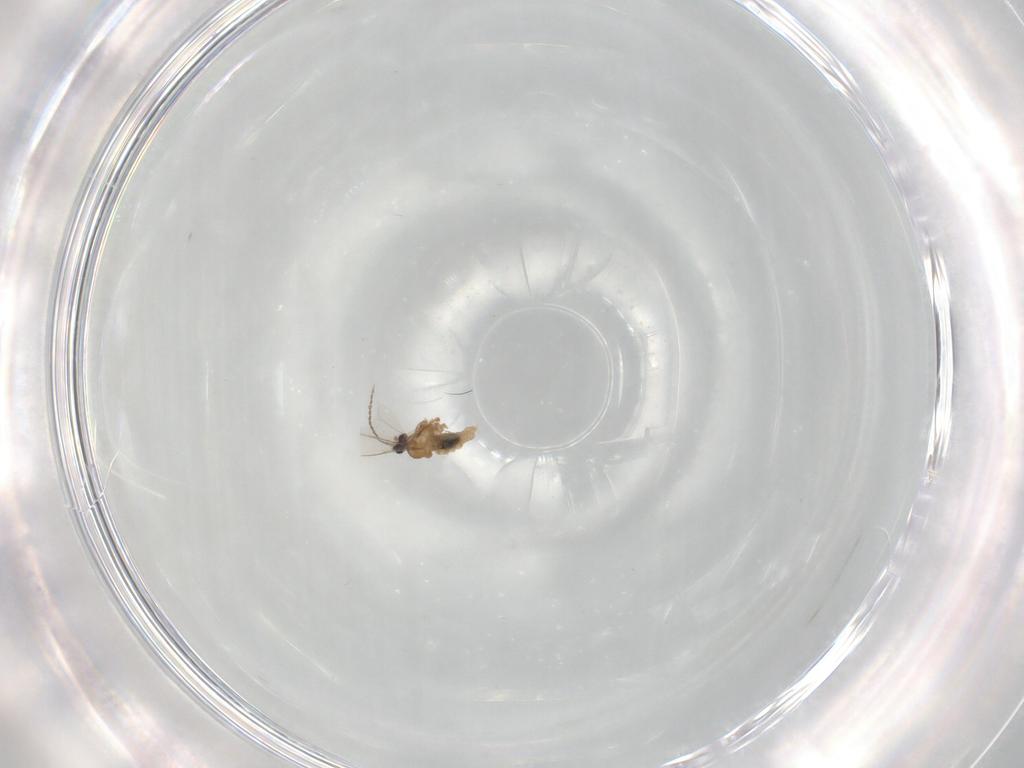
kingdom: Animalia
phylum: Arthropoda
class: Insecta
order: Diptera
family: Cecidomyiidae
